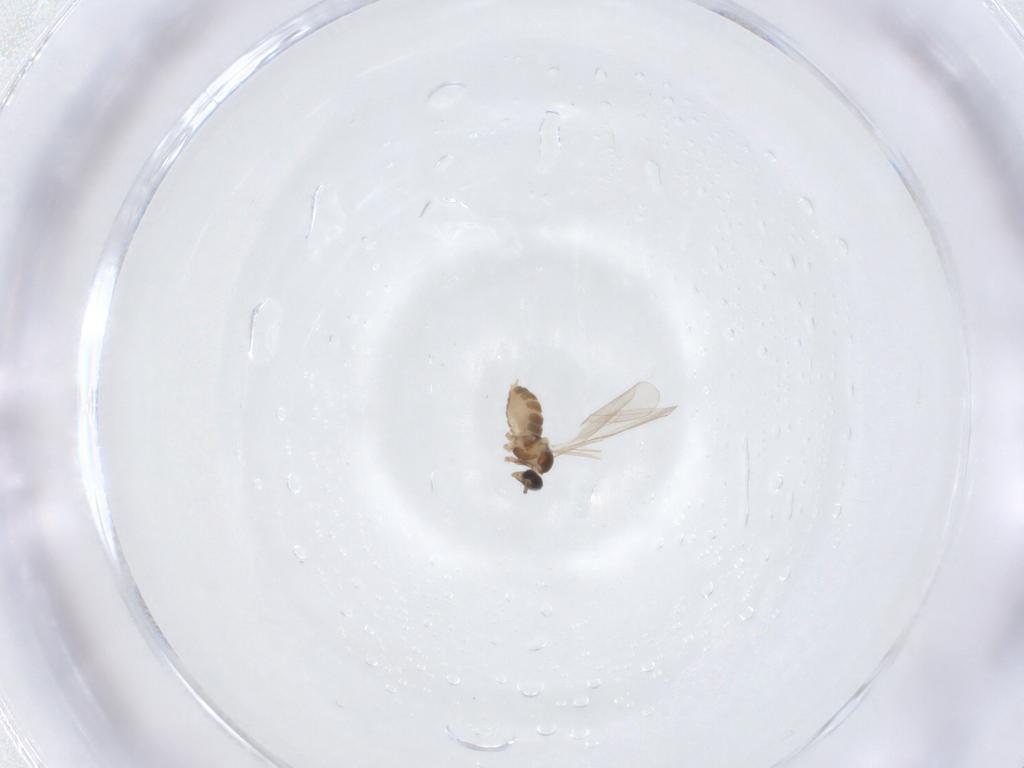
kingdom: Animalia
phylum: Arthropoda
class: Insecta
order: Diptera
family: Cecidomyiidae
